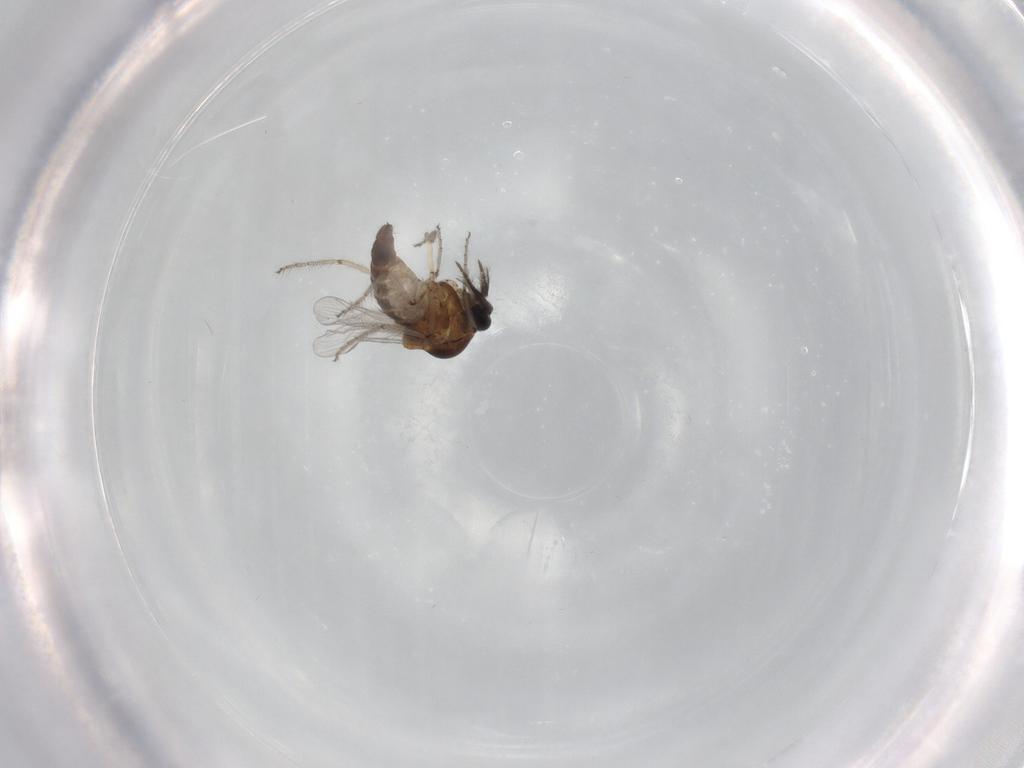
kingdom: Animalia
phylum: Arthropoda
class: Insecta
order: Diptera
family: Ceratopogonidae
